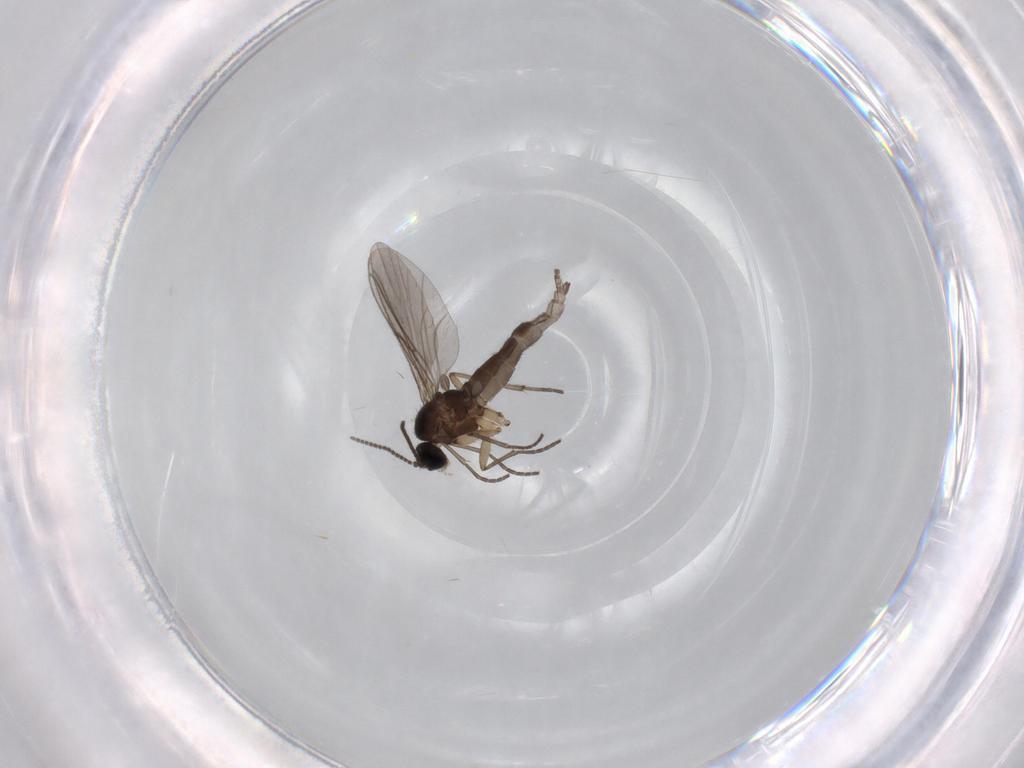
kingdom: Animalia
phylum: Arthropoda
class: Insecta
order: Diptera
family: Sciaridae
